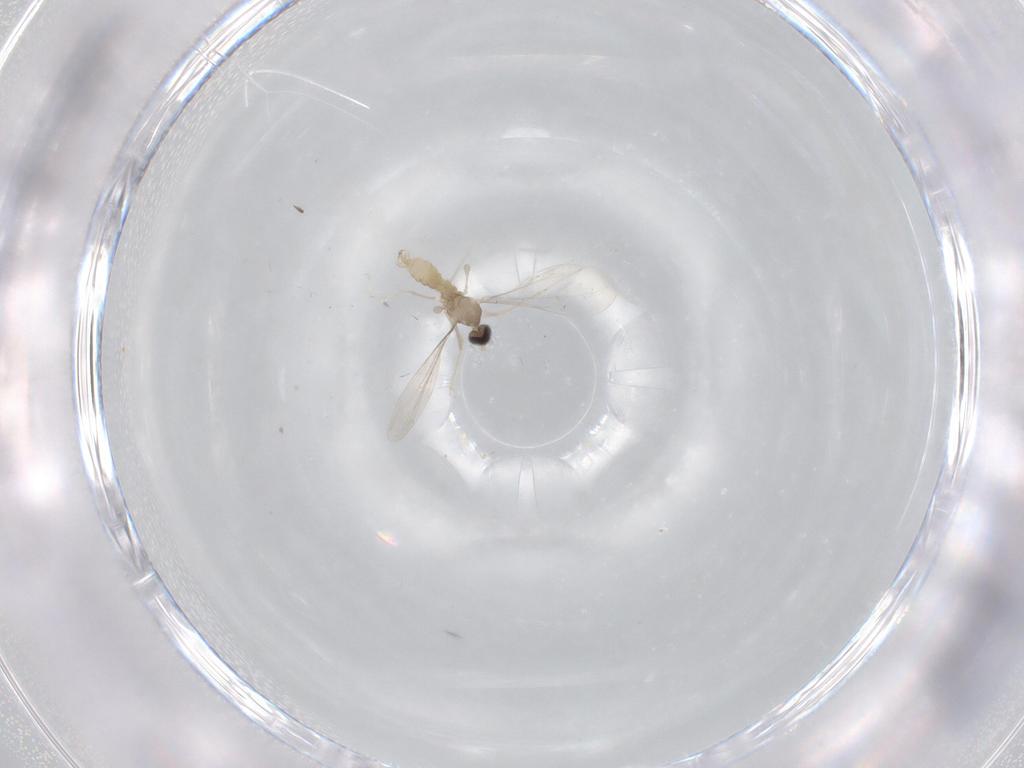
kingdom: Animalia
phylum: Arthropoda
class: Insecta
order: Diptera
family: Cecidomyiidae
